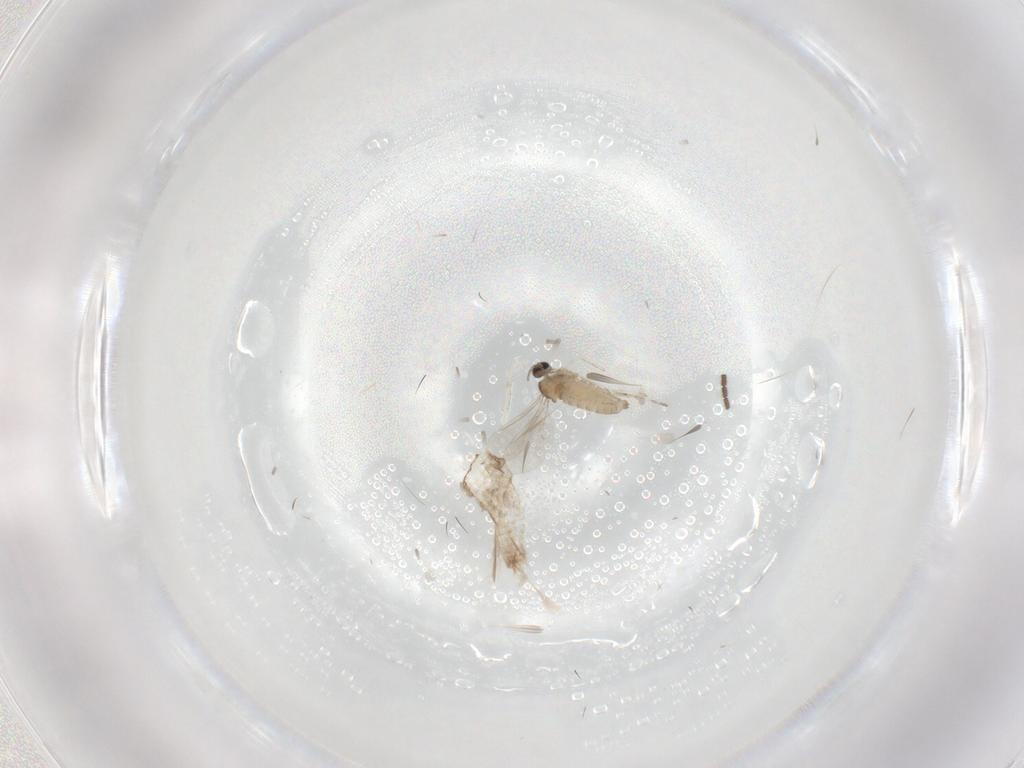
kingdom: Animalia
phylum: Arthropoda
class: Insecta
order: Diptera
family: Sciaridae
